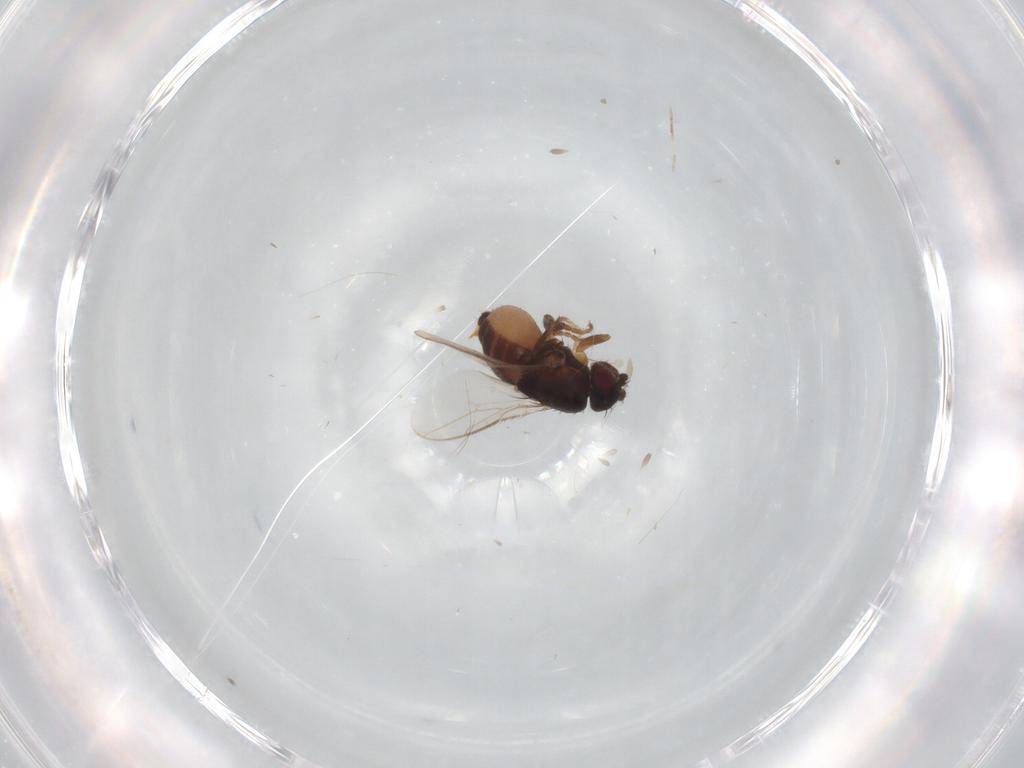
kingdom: Animalia
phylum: Arthropoda
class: Insecta
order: Diptera
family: Sphaeroceridae
